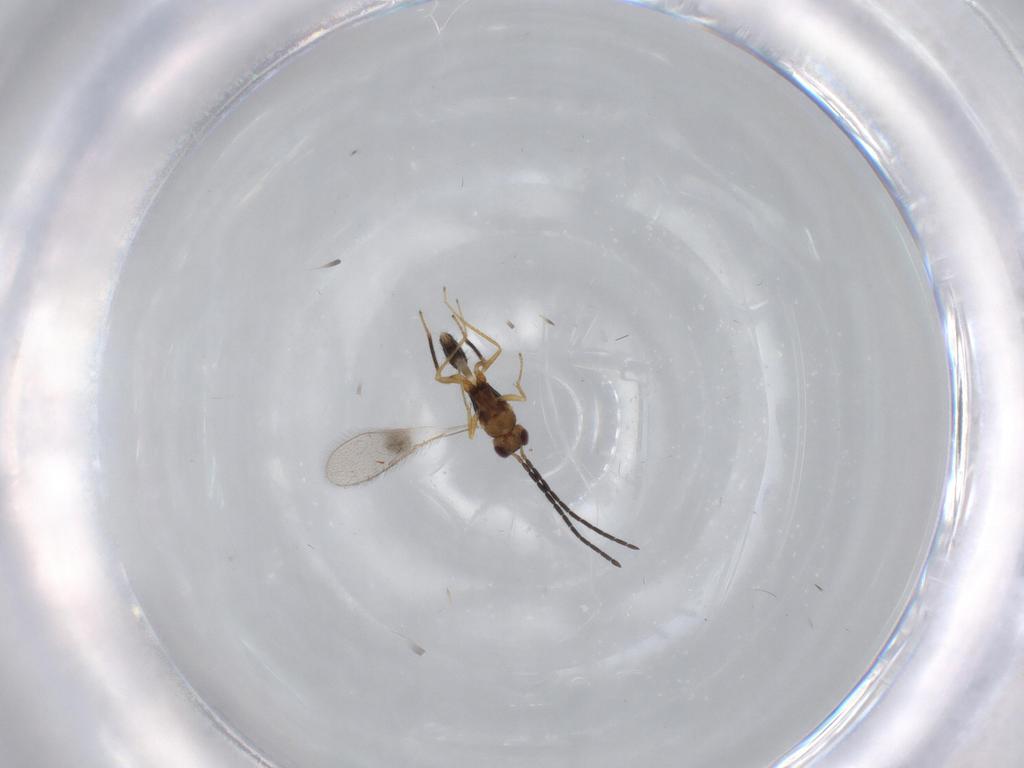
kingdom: Animalia
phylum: Arthropoda
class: Insecta
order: Hymenoptera
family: Mymaridae
